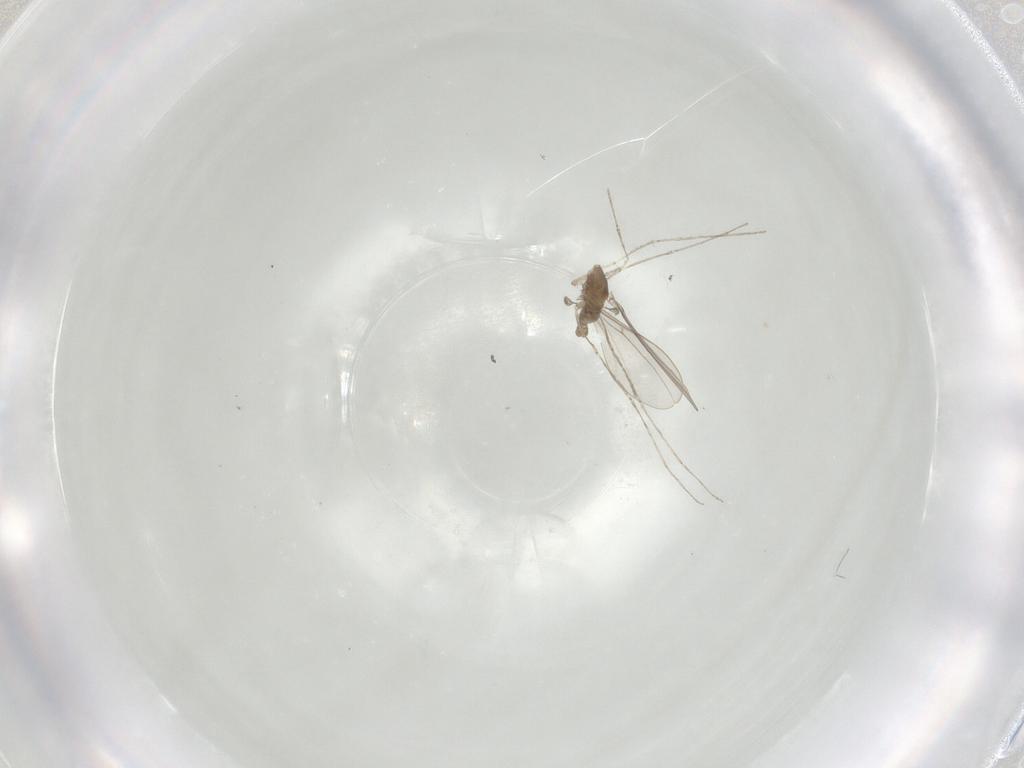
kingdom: Animalia
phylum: Arthropoda
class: Insecta
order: Diptera
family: Cecidomyiidae
